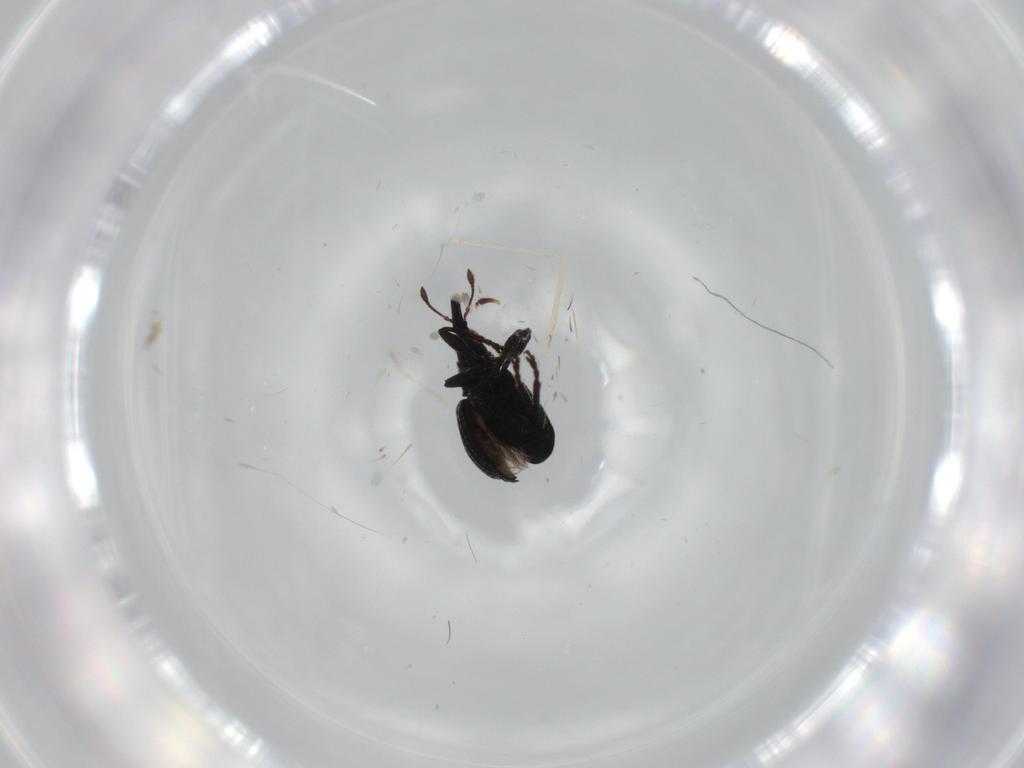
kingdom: Animalia
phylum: Arthropoda
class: Insecta
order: Coleoptera
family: Brentidae
